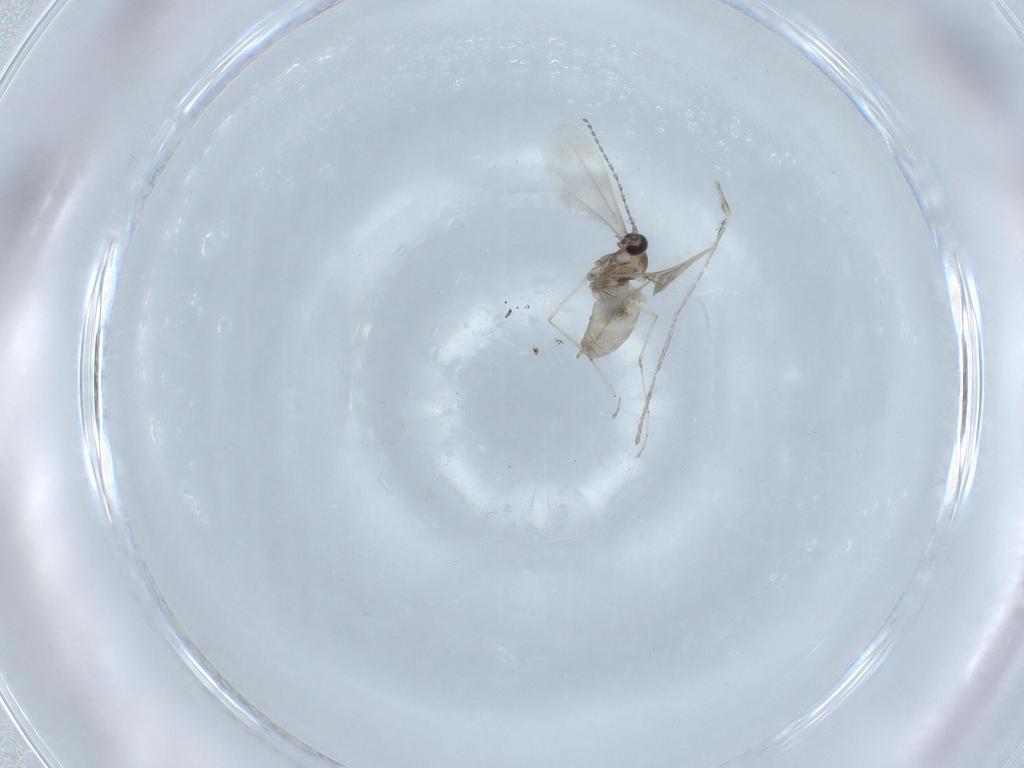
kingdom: Animalia
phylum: Arthropoda
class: Insecta
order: Diptera
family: Cecidomyiidae
